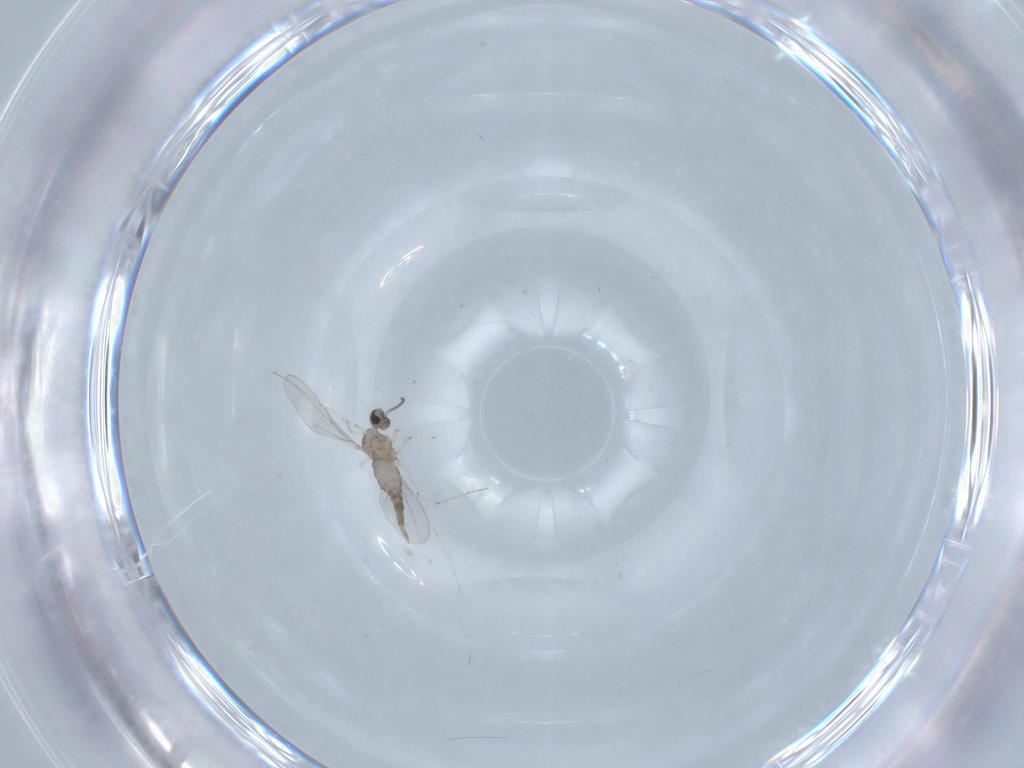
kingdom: Animalia
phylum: Arthropoda
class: Insecta
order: Diptera
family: Cecidomyiidae
